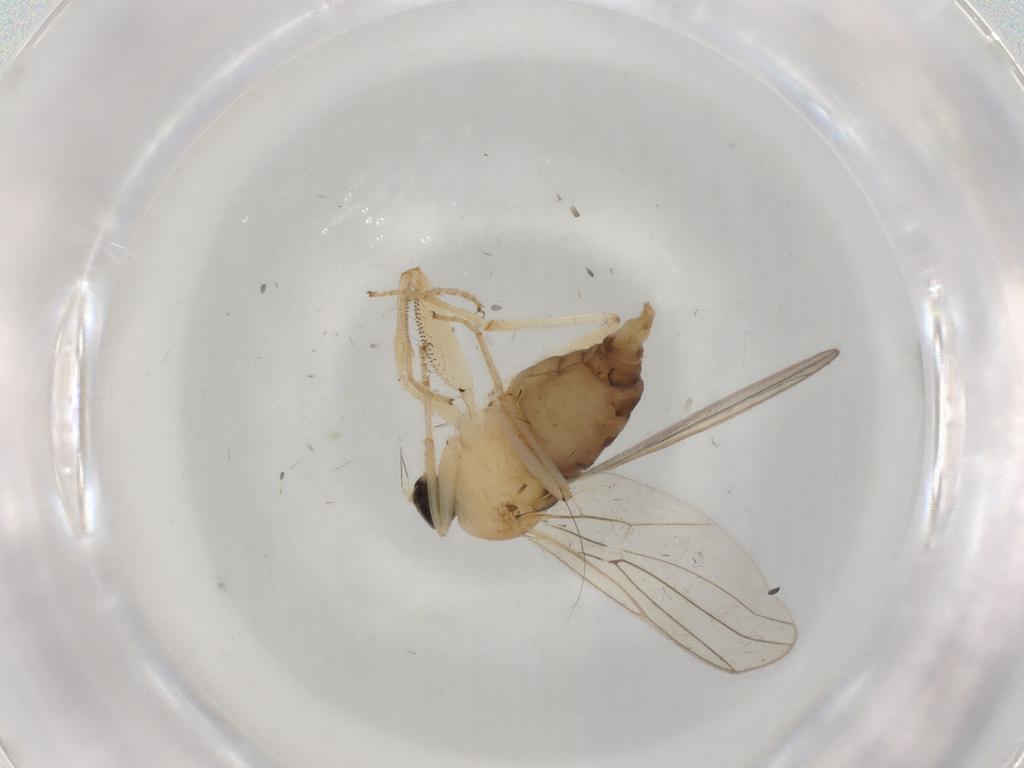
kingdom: Animalia
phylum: Arthropoda
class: Insecta
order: Diptera
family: Hybotidae
